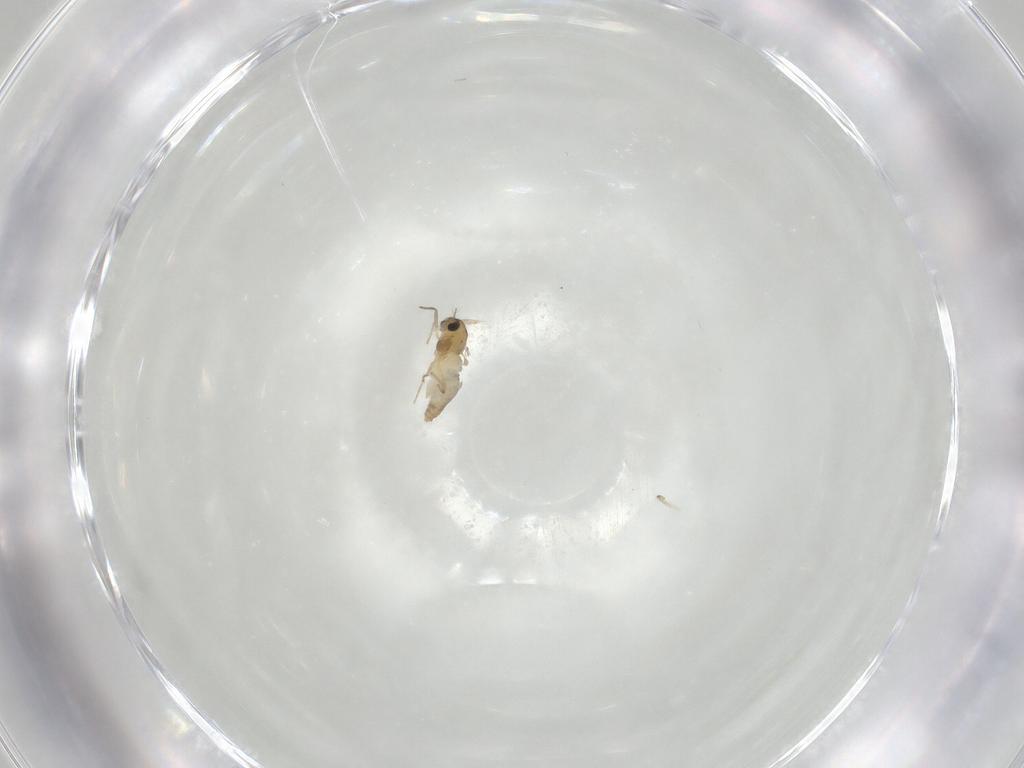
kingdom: Animalia
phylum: Arthropoda
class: Insecta
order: Diptera
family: Chironomidae
